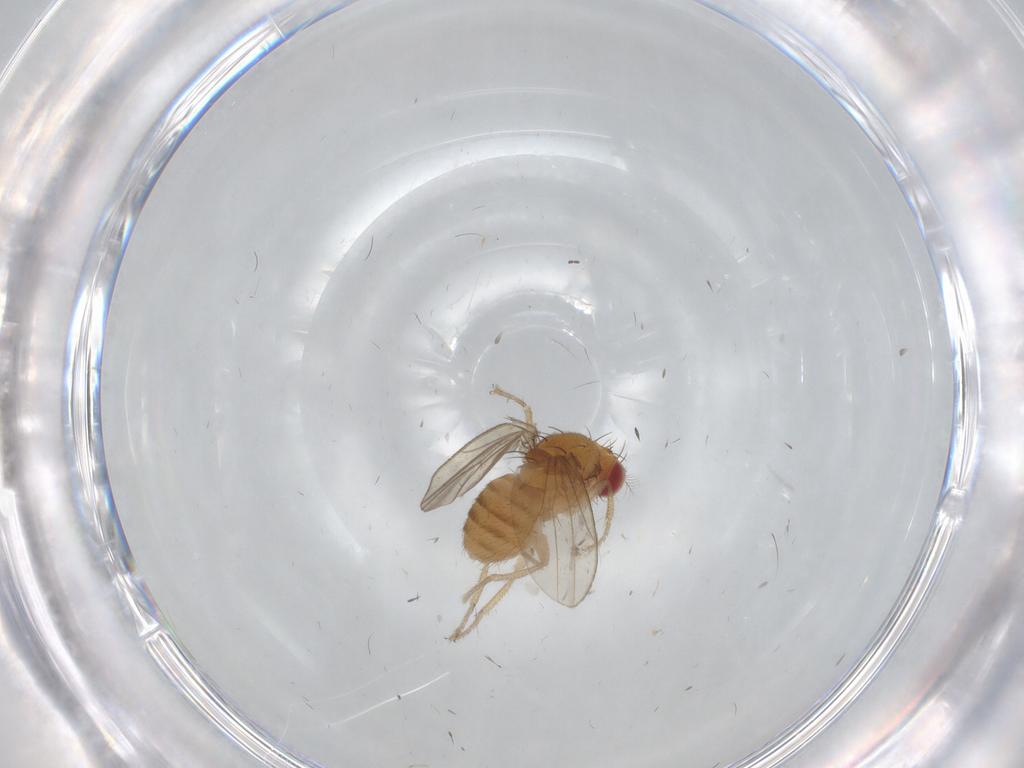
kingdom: Animalia
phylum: Arthropoda
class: Insecta
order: Diptera
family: Drosophilidae
